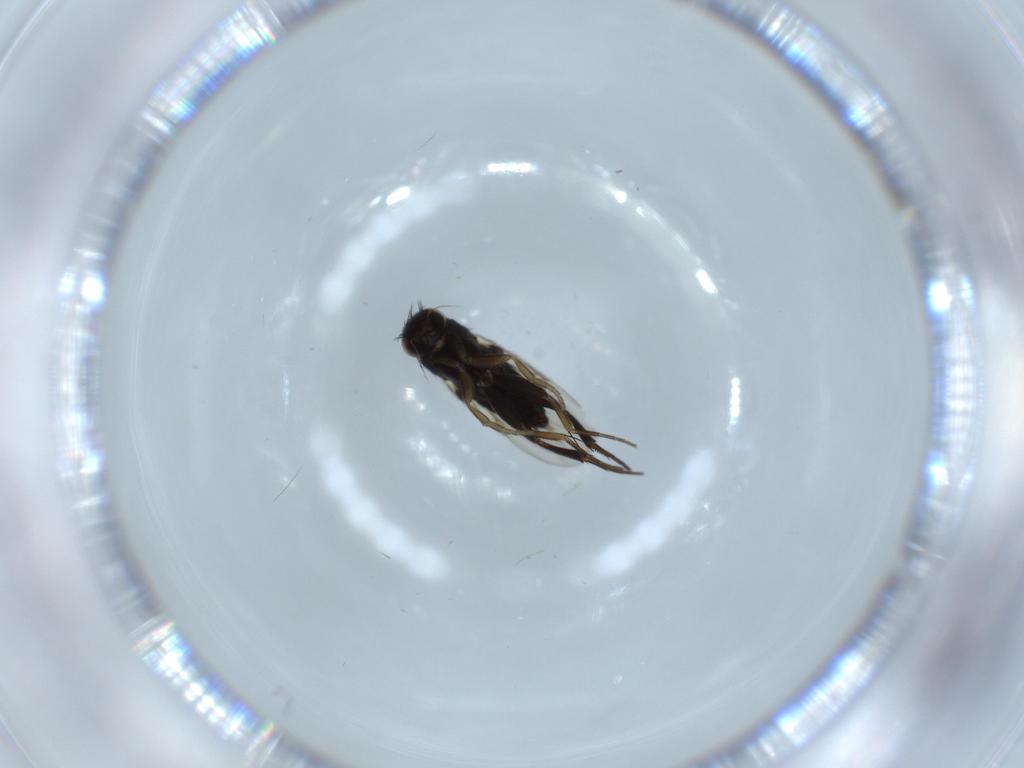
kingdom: Animalia
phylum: Arthropoda
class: Insecta
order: Diptera
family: Phoridae
